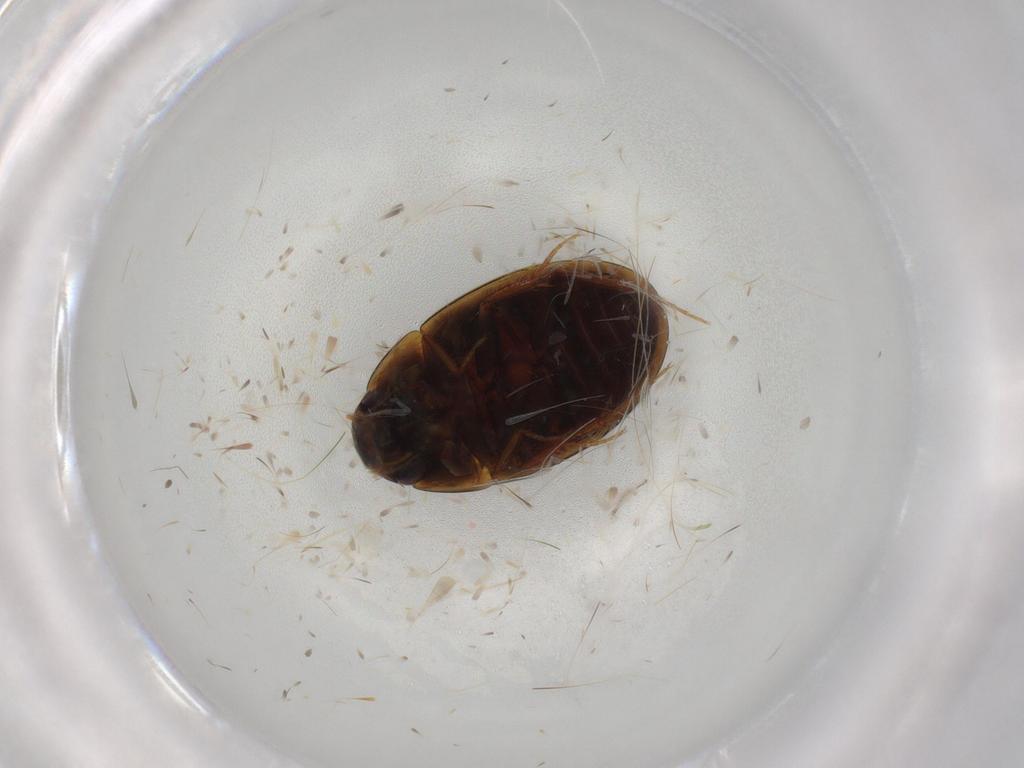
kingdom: Animalia
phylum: Arthropoda
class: Insecta
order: Coleoptera
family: Hydrophilidae
